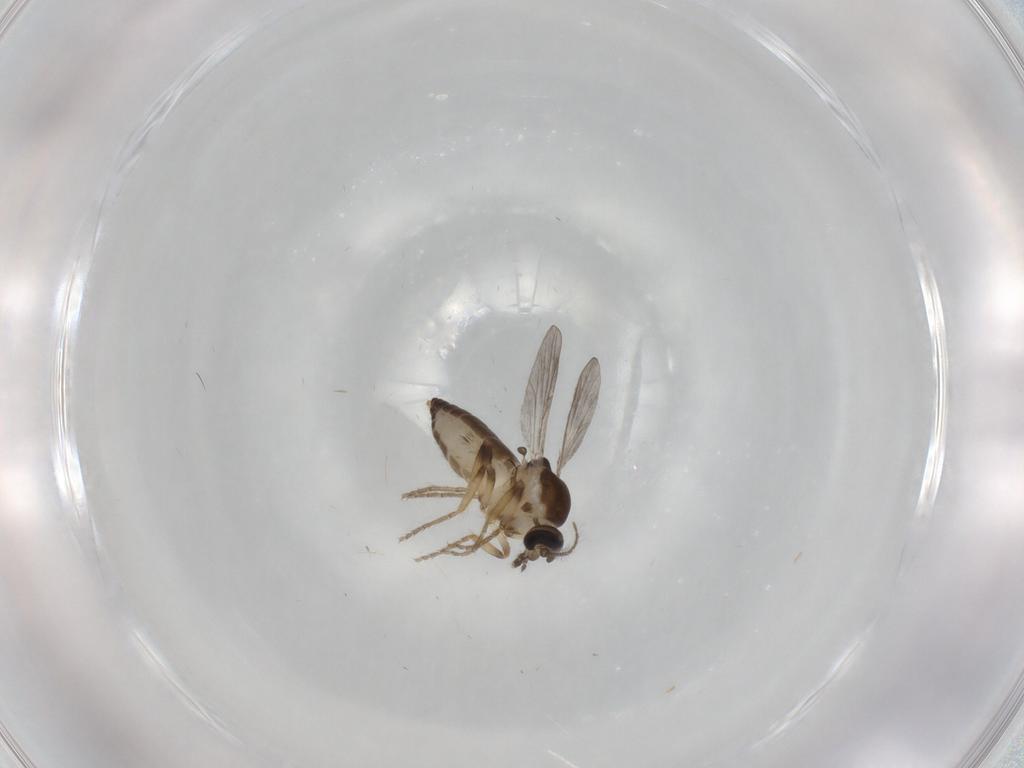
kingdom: Animalia
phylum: Arthropoda
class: Insecta
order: Diptera
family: Ceratopogonidae
